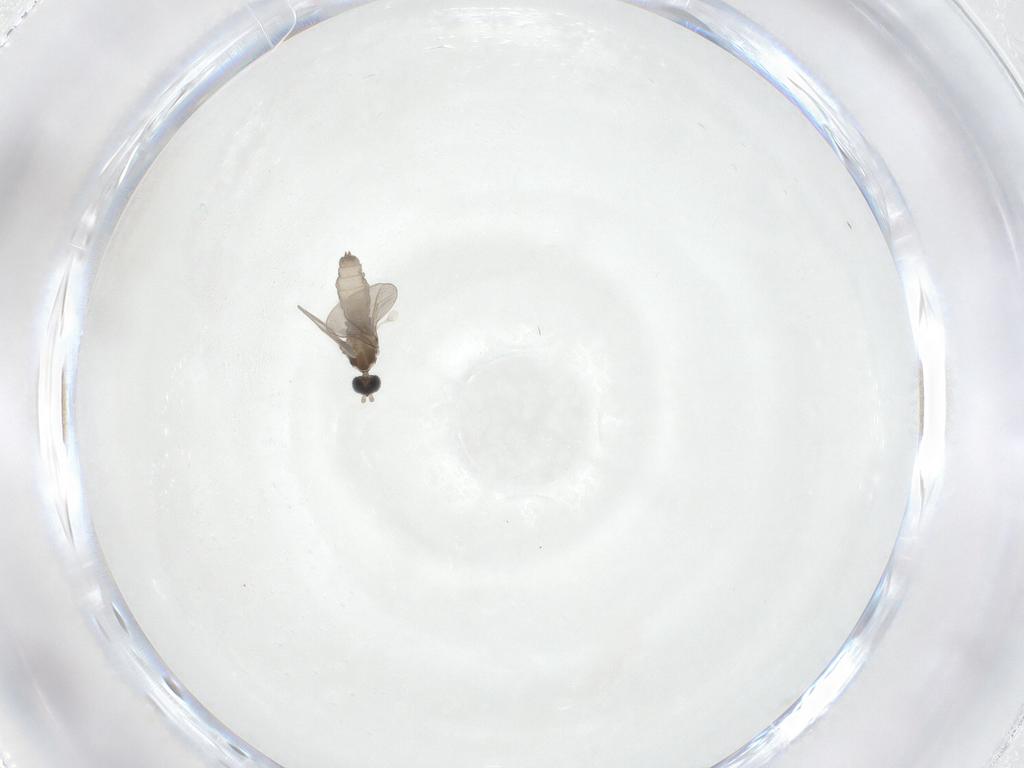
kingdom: Animalia
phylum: Arthropoda
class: Insecta
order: Diptera
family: Cecidomyiidae
